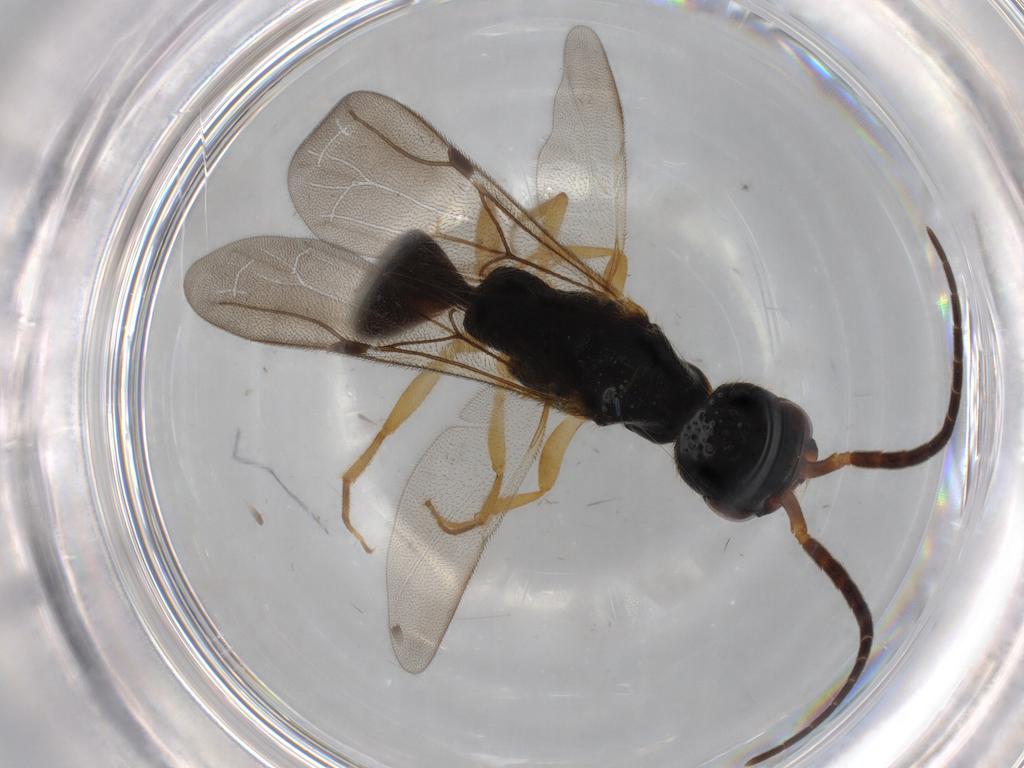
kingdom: Animalia
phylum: Arthropoda
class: Insecta
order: Hymenoptera
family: Bethylidae
